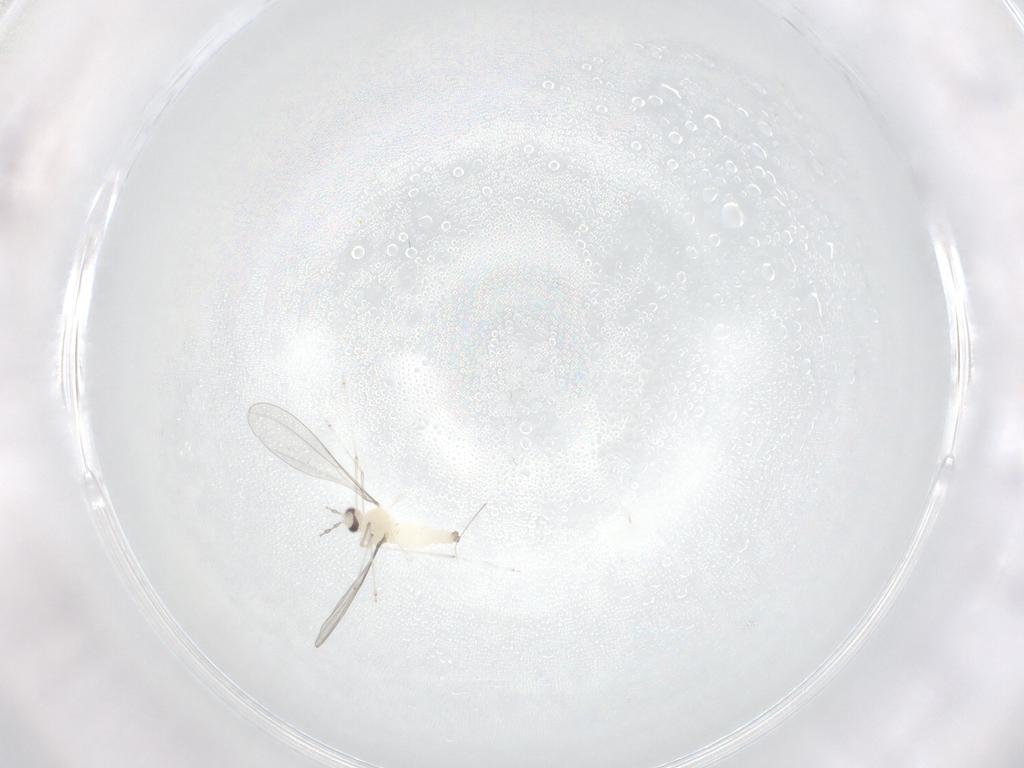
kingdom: Animalia
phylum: Arthropoda
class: Insecta
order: Diptera
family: Cecidomyiidae
